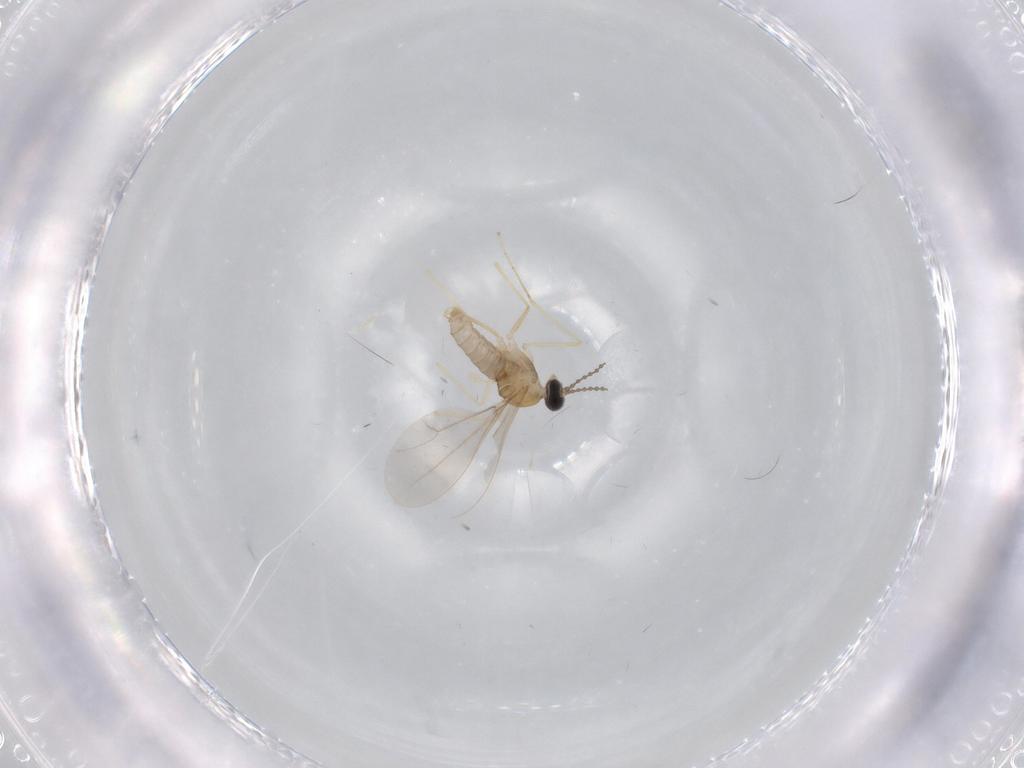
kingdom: Animalia
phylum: Arthropoda
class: Insecta
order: Diptera
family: Cecidomyiidae
